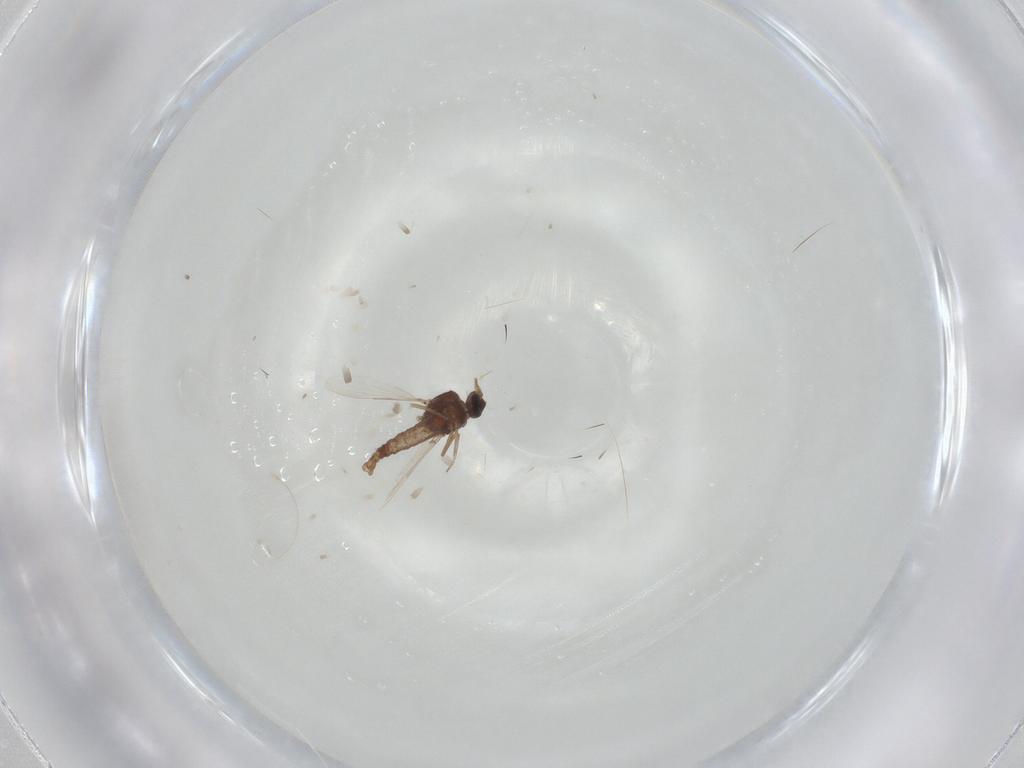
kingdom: Animalia
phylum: Arthropoda
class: Insecta
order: Diptera
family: Ceratopogonidae
